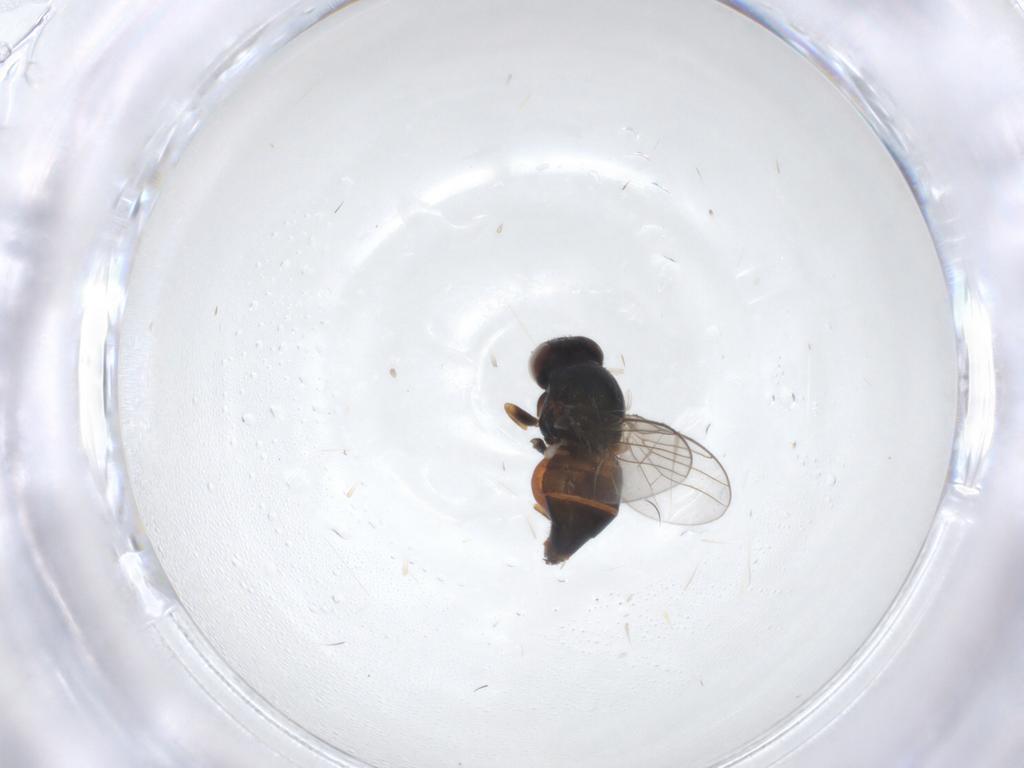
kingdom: Animalia
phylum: Arthropoda
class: Insecta
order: Diptera
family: Chloropidae
